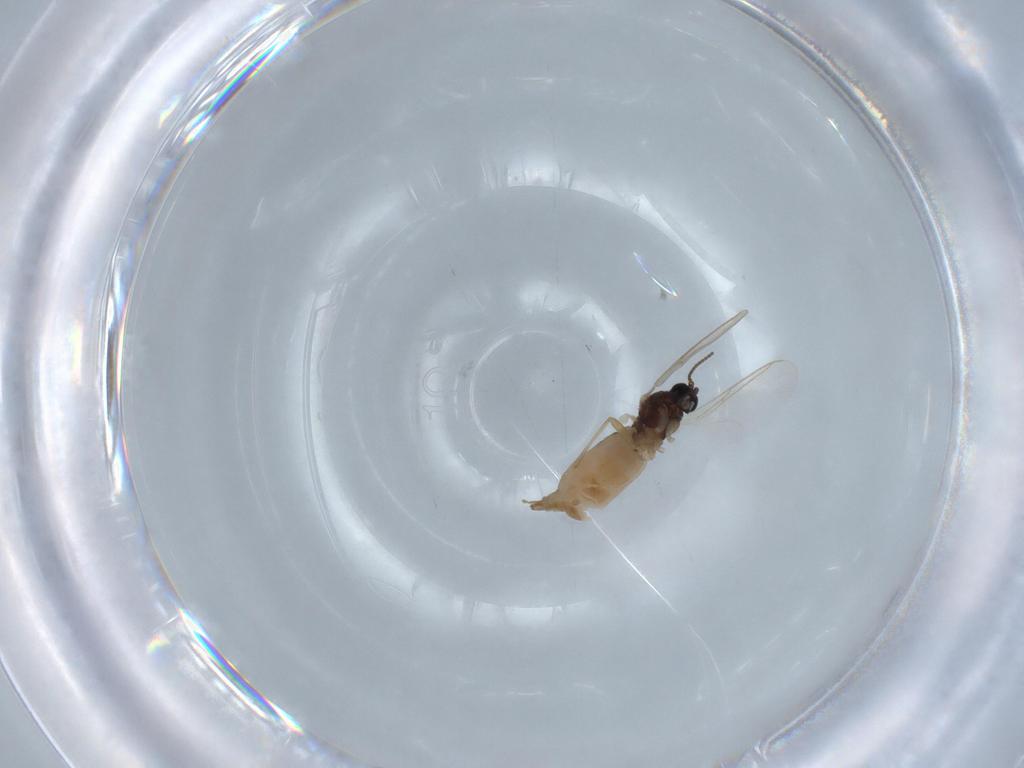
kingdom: Animalia
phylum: Arthropoda
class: Insecta
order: Diptera
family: Sciaridae
